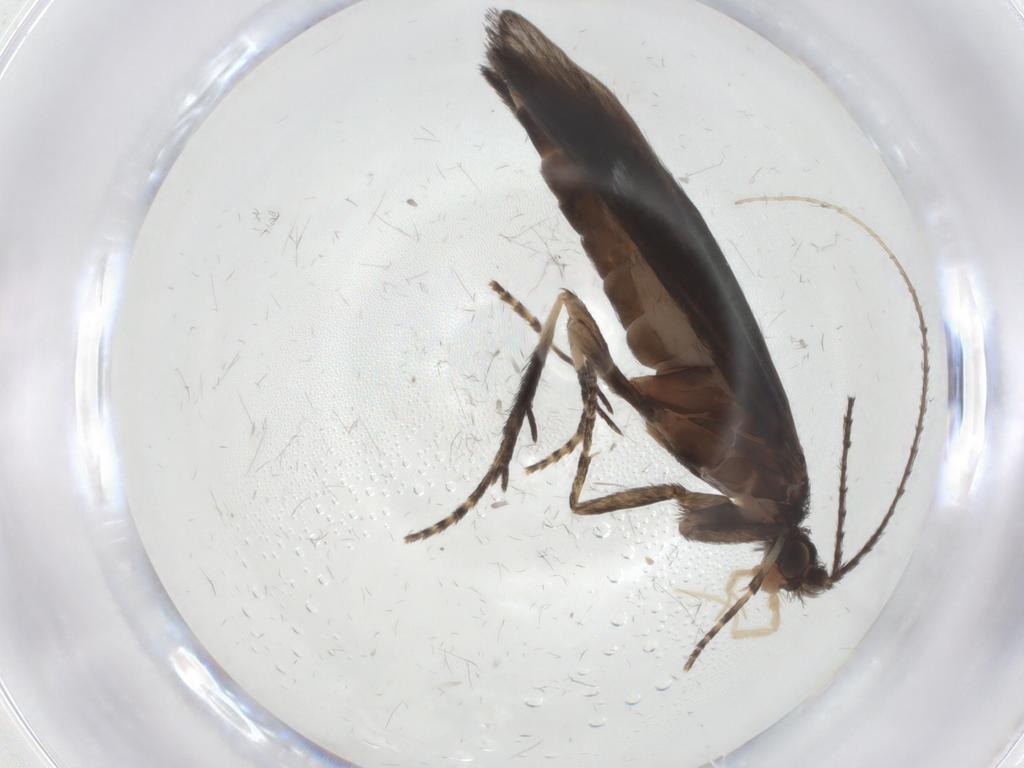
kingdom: Animalia
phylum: Arthropoda
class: Insecta
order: Trichoptera
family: Xiphocentronidae
